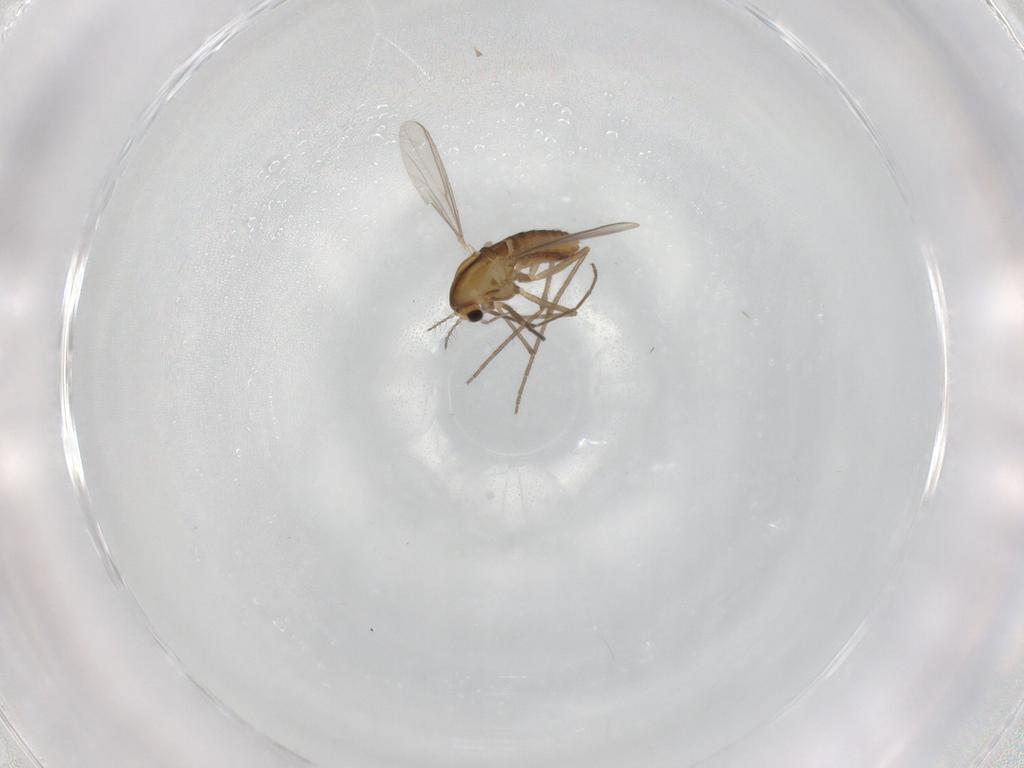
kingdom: Animalia
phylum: Arthropoda
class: Insecta
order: Diptera
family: Chironomidae
